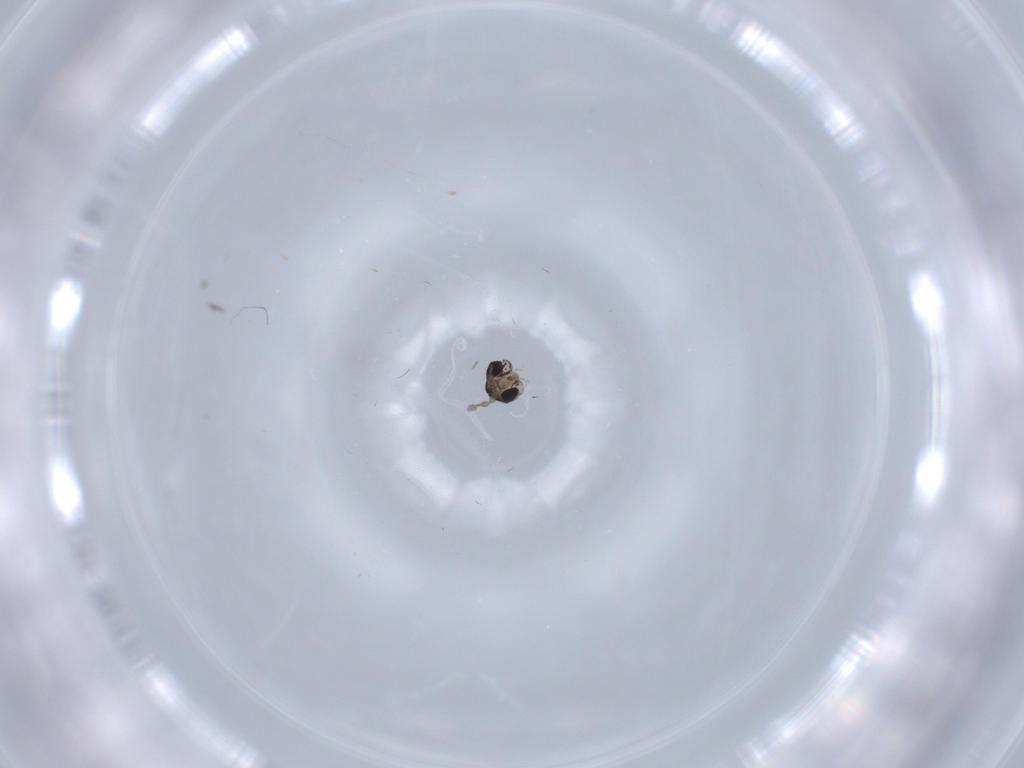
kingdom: Animalia
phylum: Arthropoda
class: Insecta
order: Diptera
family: Cecidomyiidae
